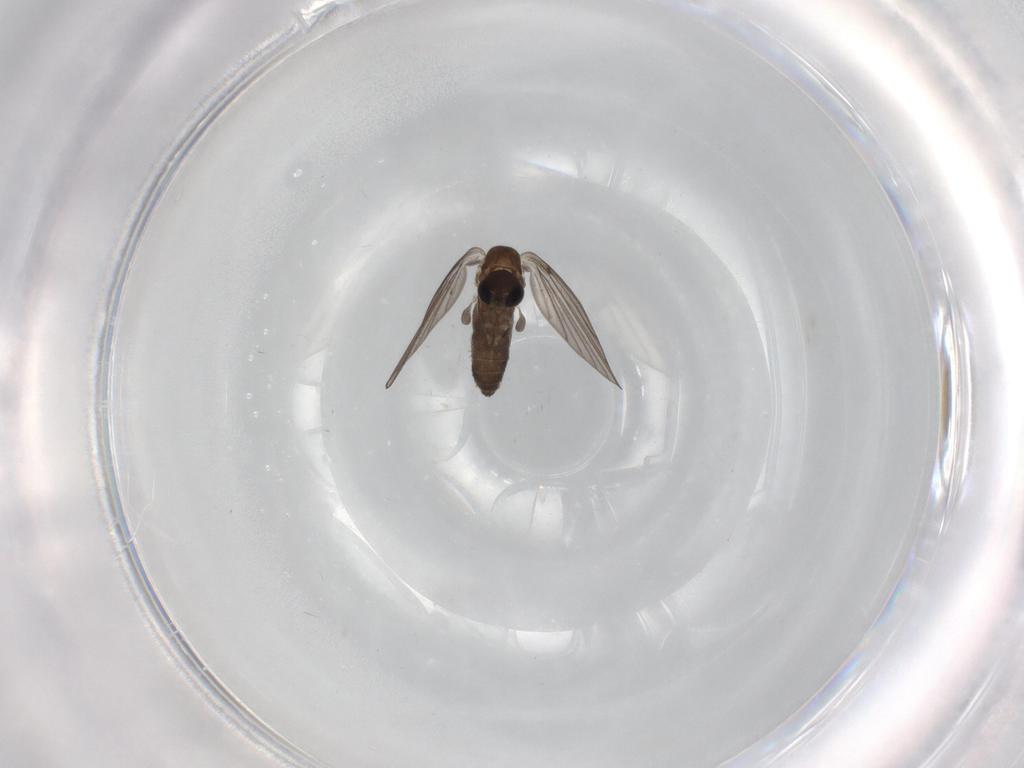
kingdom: Animalia
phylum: Arthropoda
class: Insecta
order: Diptera
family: Psychodidae
